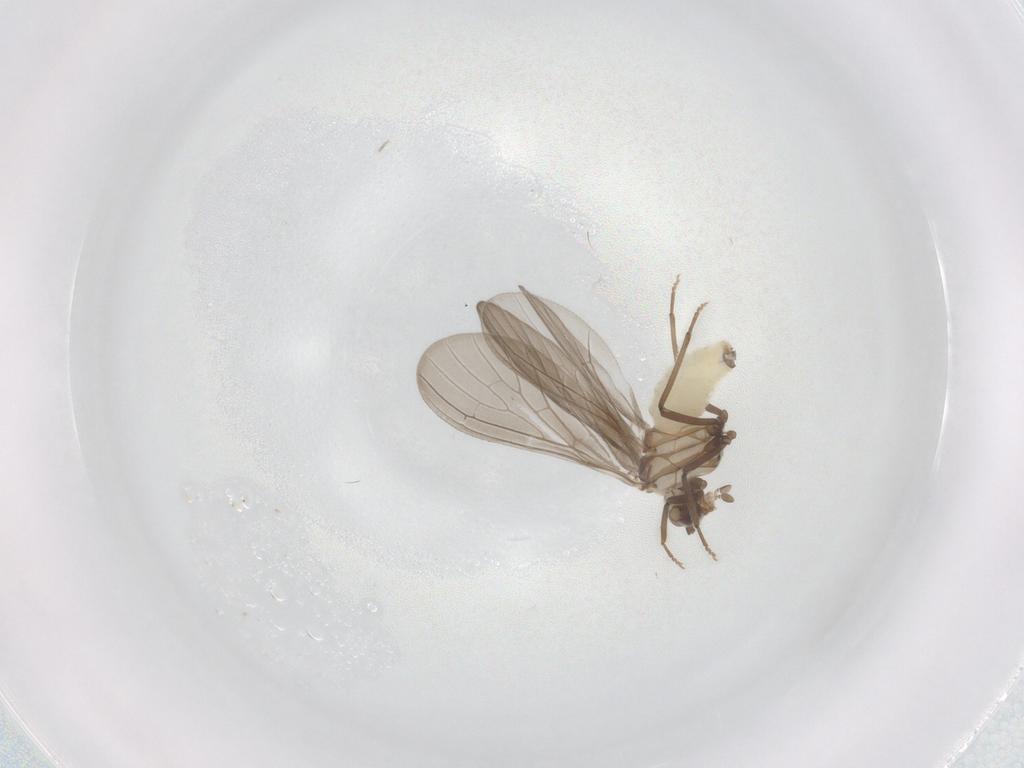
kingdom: Animalia
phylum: Arthropoda
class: Insecta
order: Neuroptera
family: Coniopterygidae
